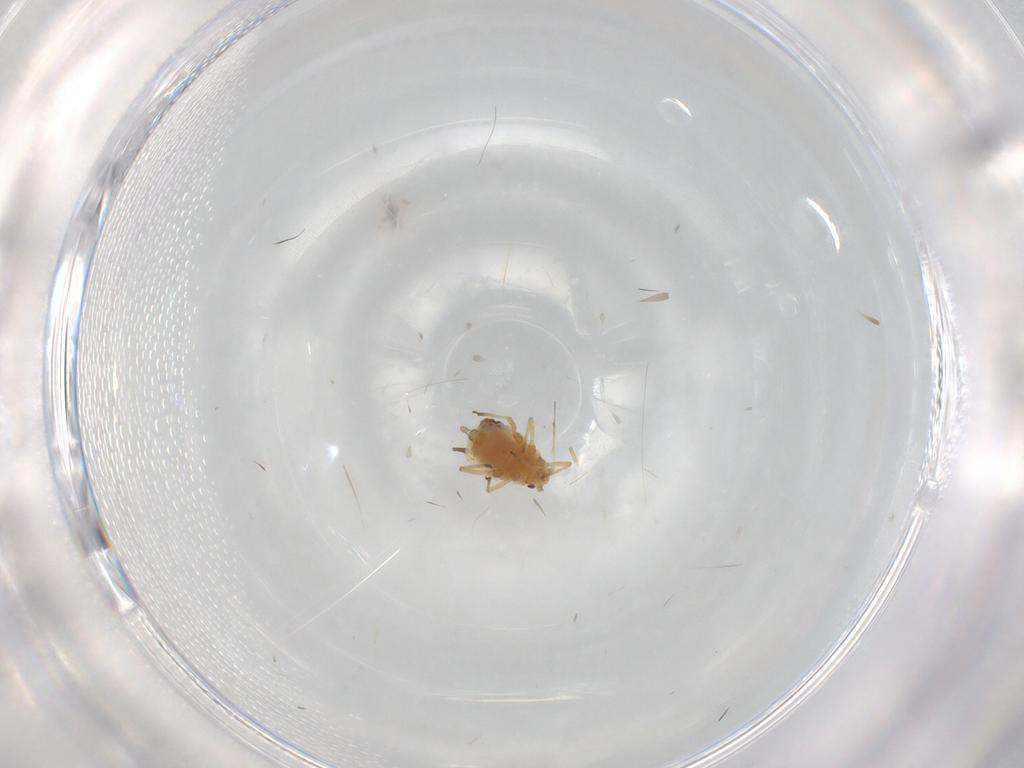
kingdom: Animalia
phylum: Arthropoda
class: Insecta
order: Hemiptera
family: Aphididae
